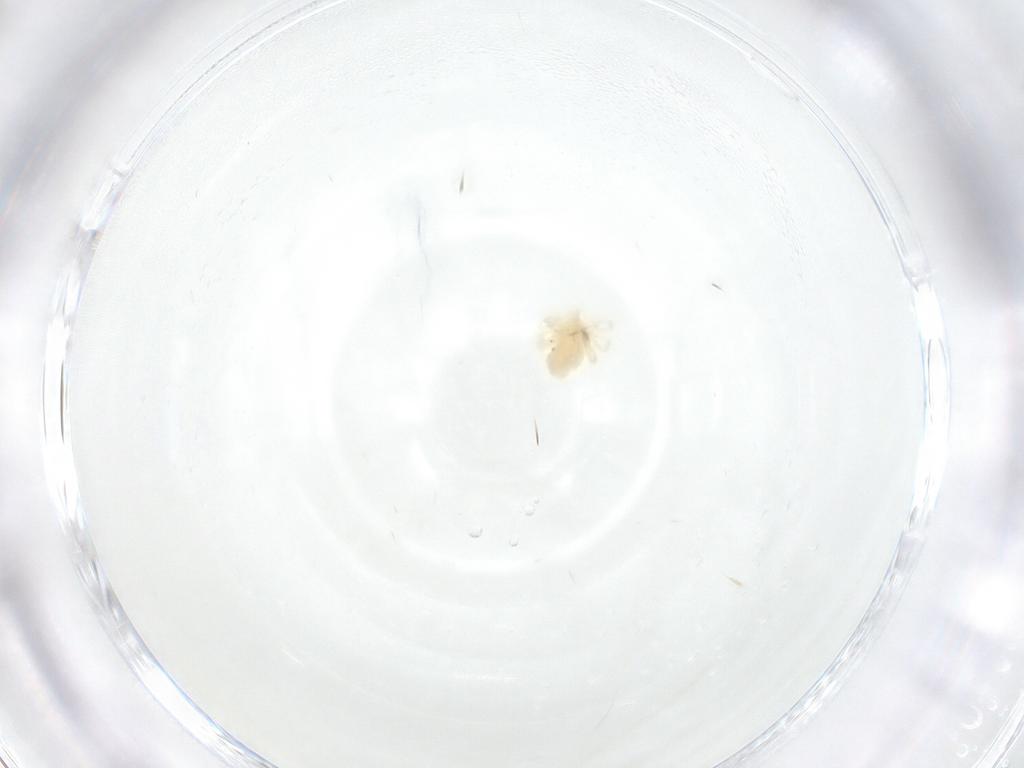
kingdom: Animalia
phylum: Arthropoda
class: Arachnida
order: Trombidiformes
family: Anystidae
